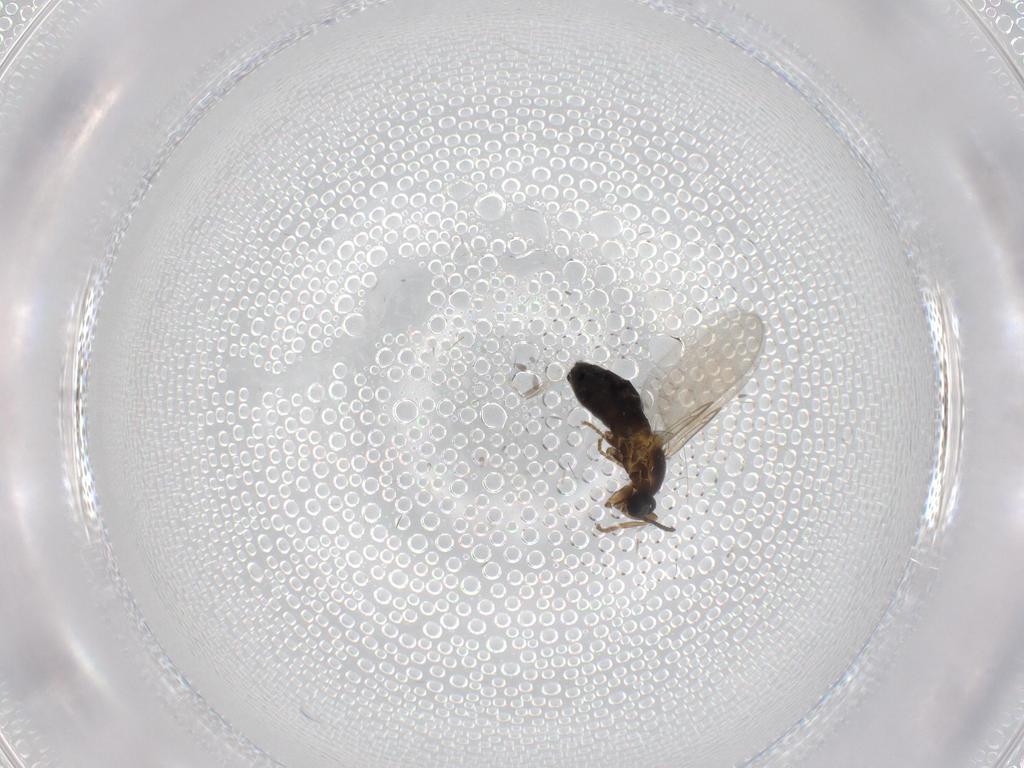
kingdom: Animalia
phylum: Arthropoda
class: Insecta
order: Diptera
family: Scatopsidae
